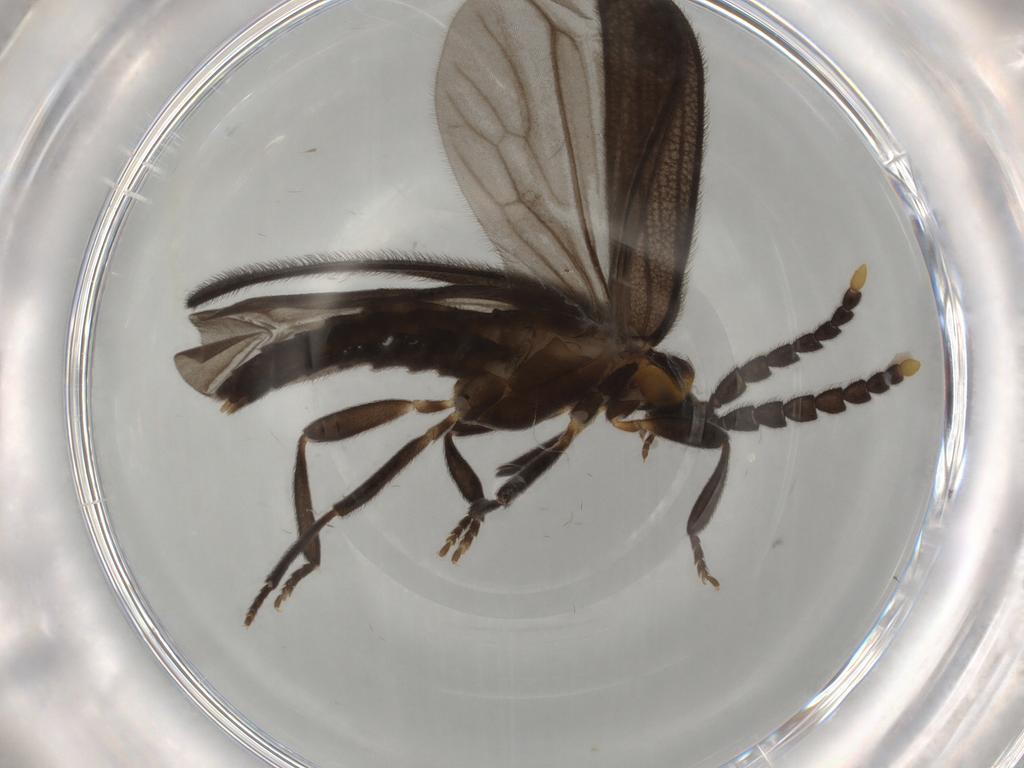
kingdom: Animalia
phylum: Arthropoda
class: Insecta
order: Coleoptera
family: Lycidae
